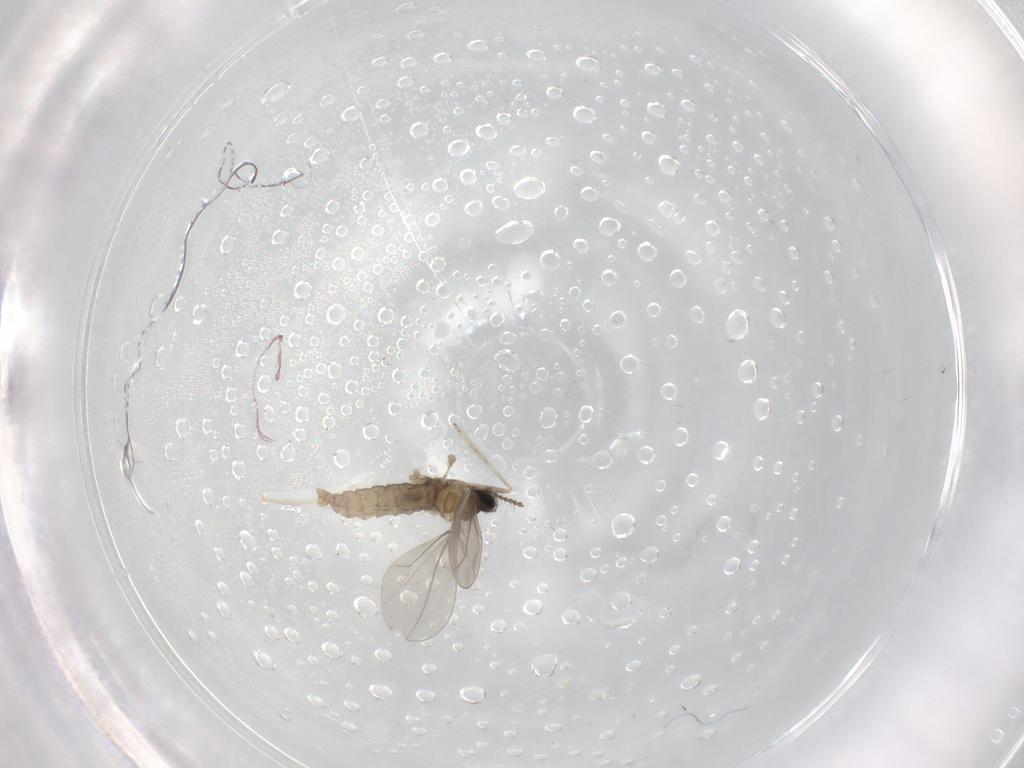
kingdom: Animalia
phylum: Arthropoda
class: Insecta
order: Diptera
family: Cecidomyiidae
